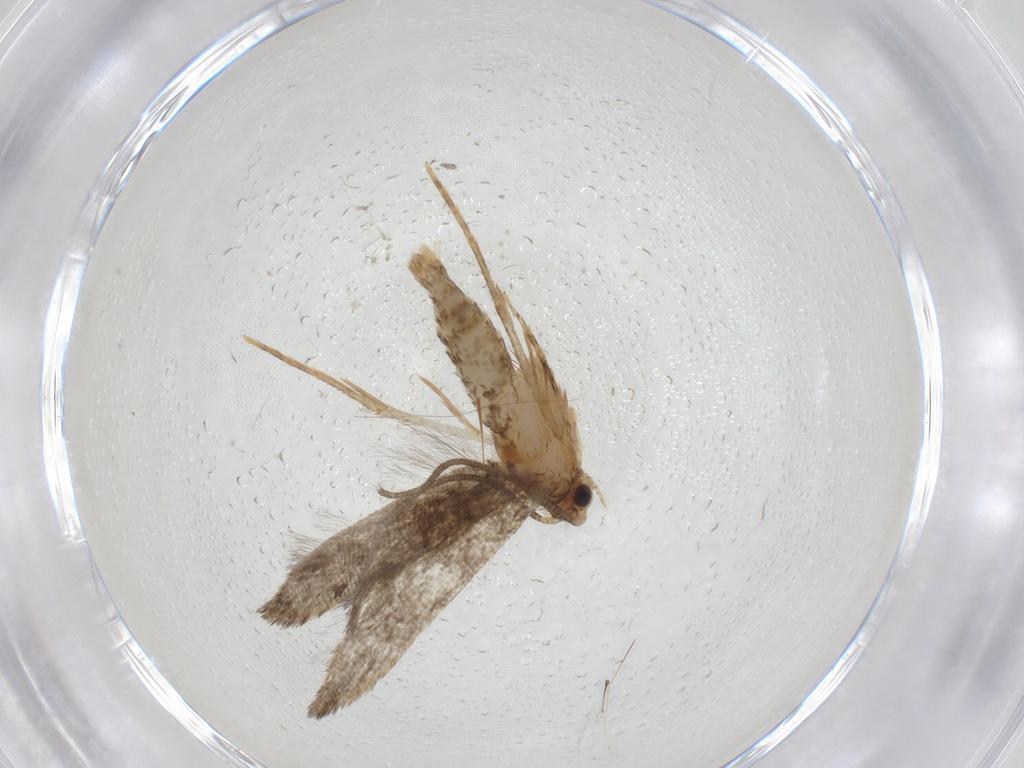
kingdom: Animalia
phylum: Arthropoda
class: Insecta
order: Lepidoptera
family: Tineidae
